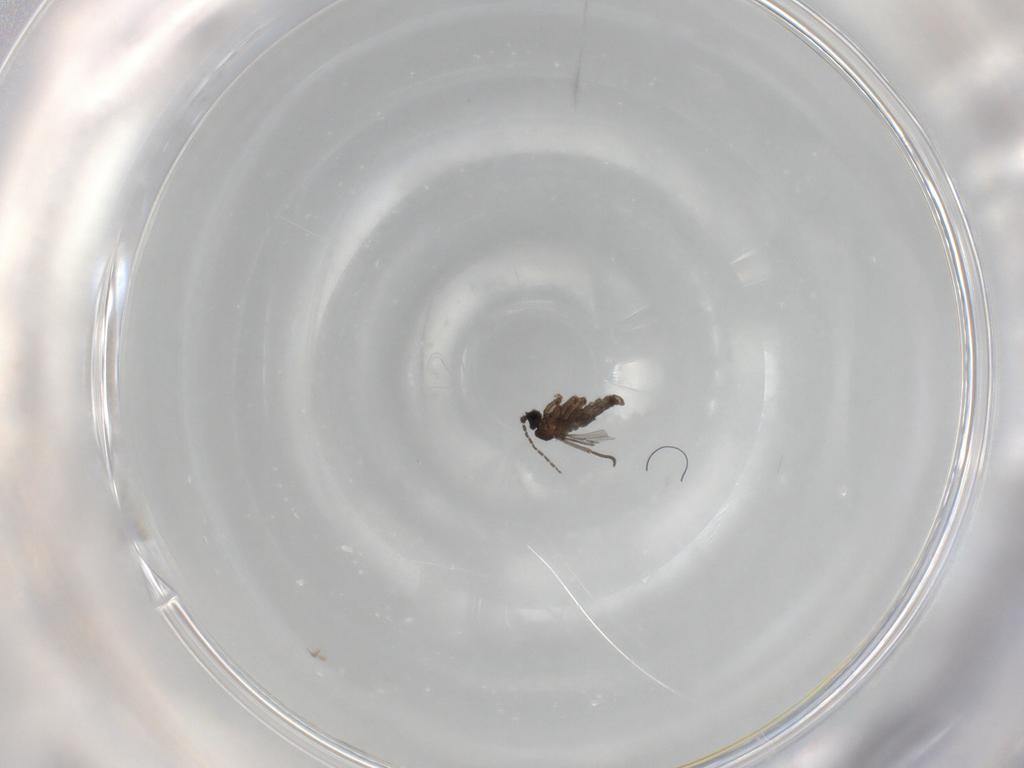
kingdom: Animalia
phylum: Arthropoda
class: Insecta
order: Diptera
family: Sciaridae
